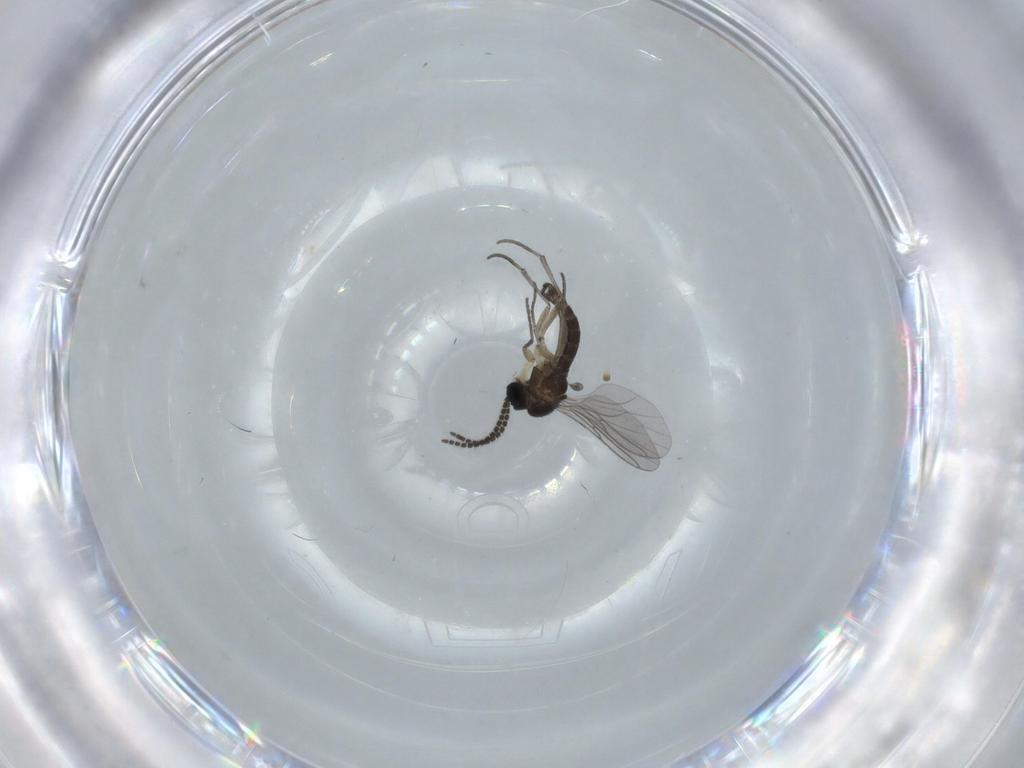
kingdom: Animalia
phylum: Arthropoda
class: Insecta
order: Diptera
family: Sciaridae
